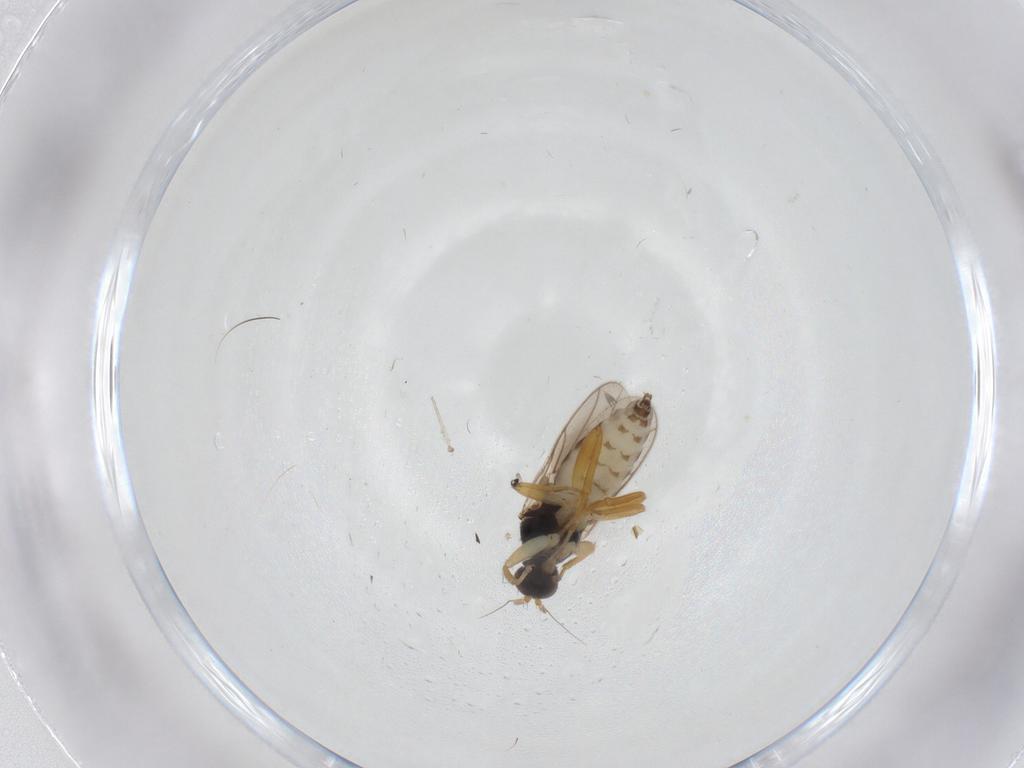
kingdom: Animalia
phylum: Arthropoda
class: Insecta
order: Diptera
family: Hybotidae
